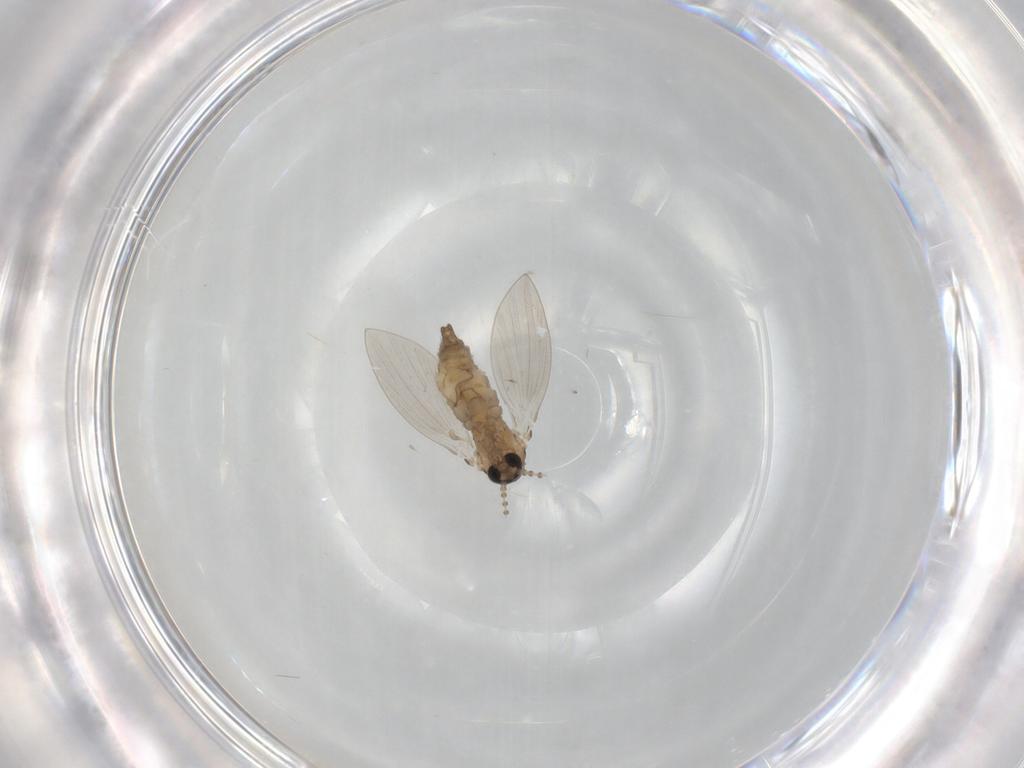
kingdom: Animalia
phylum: Arthropoda
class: Insecta
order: Diptera
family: Psychodidae
